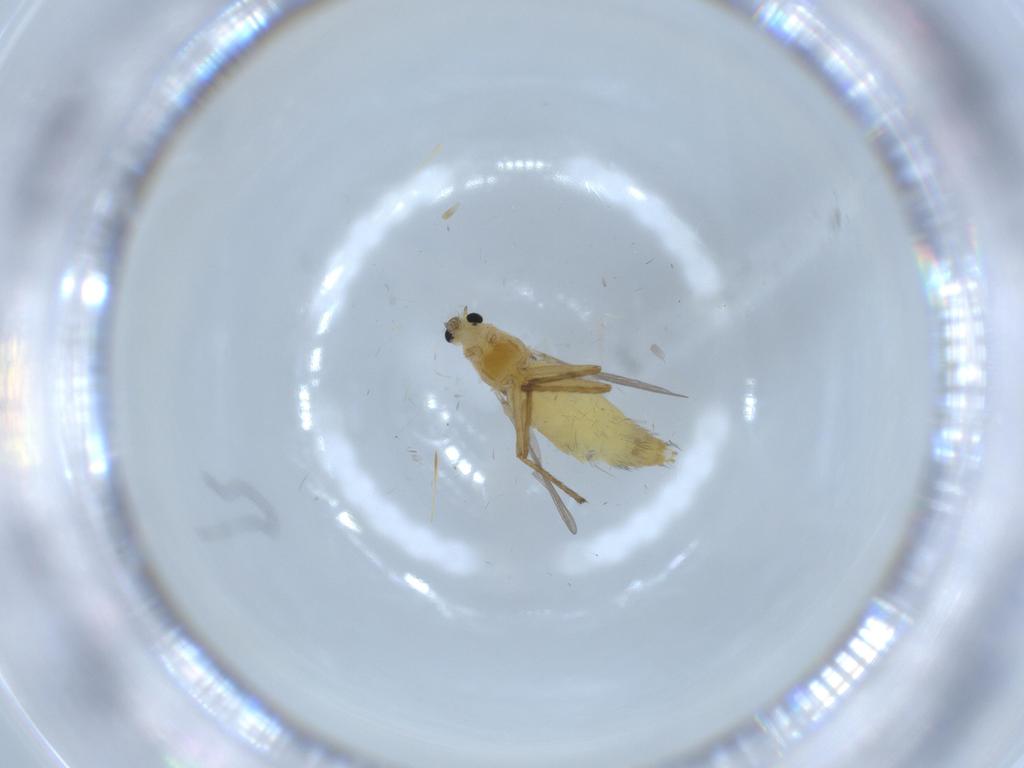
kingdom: Animalia
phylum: Arthropoda
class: Insecta
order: Diptera
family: Chironomidae
